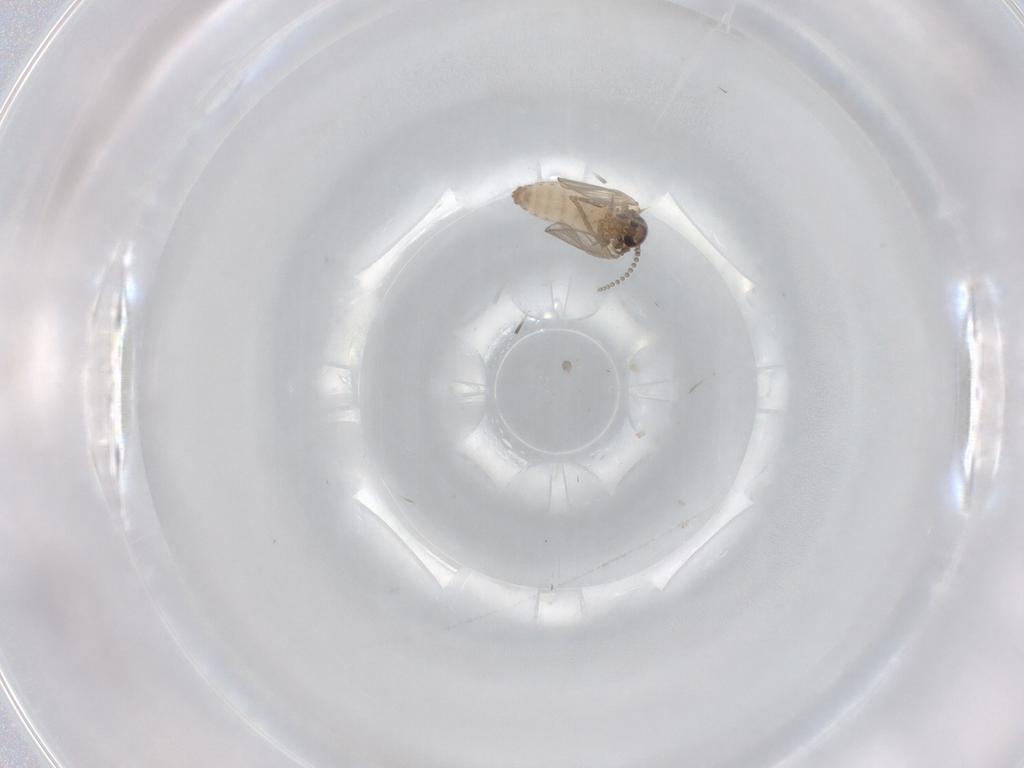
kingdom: Animalia
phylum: Arthropoda
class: Insecta
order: Diptera
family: Psychodidae
